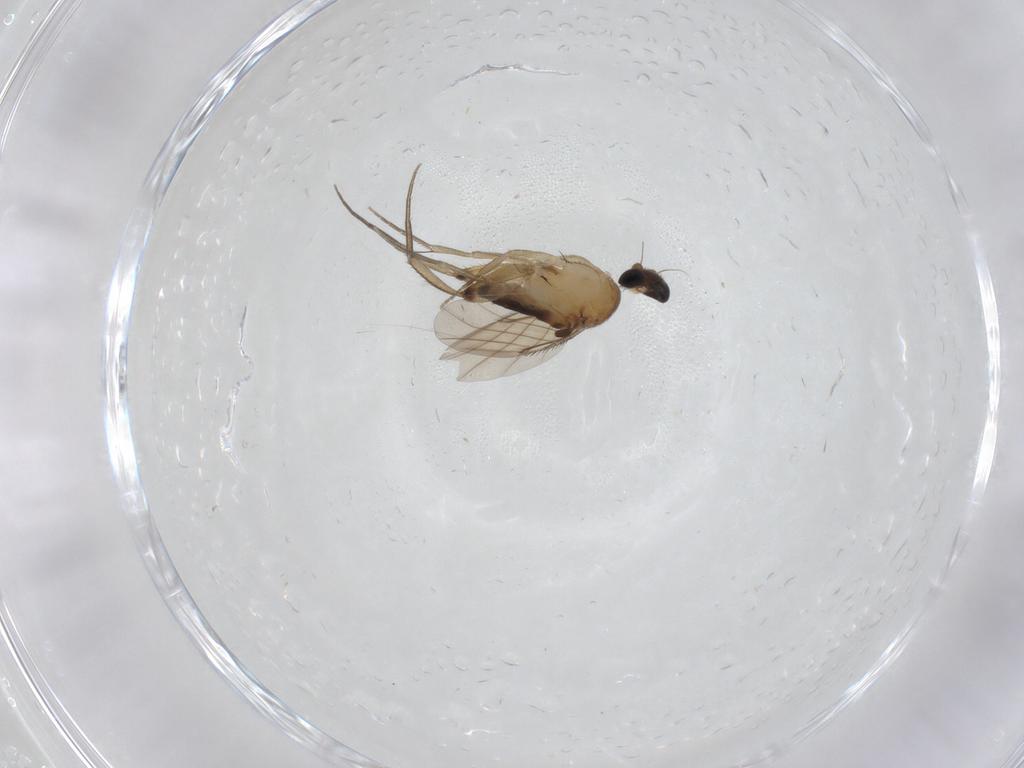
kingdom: Animalia
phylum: Arthropoda
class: Insecta
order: Diptera
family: Phoridae
